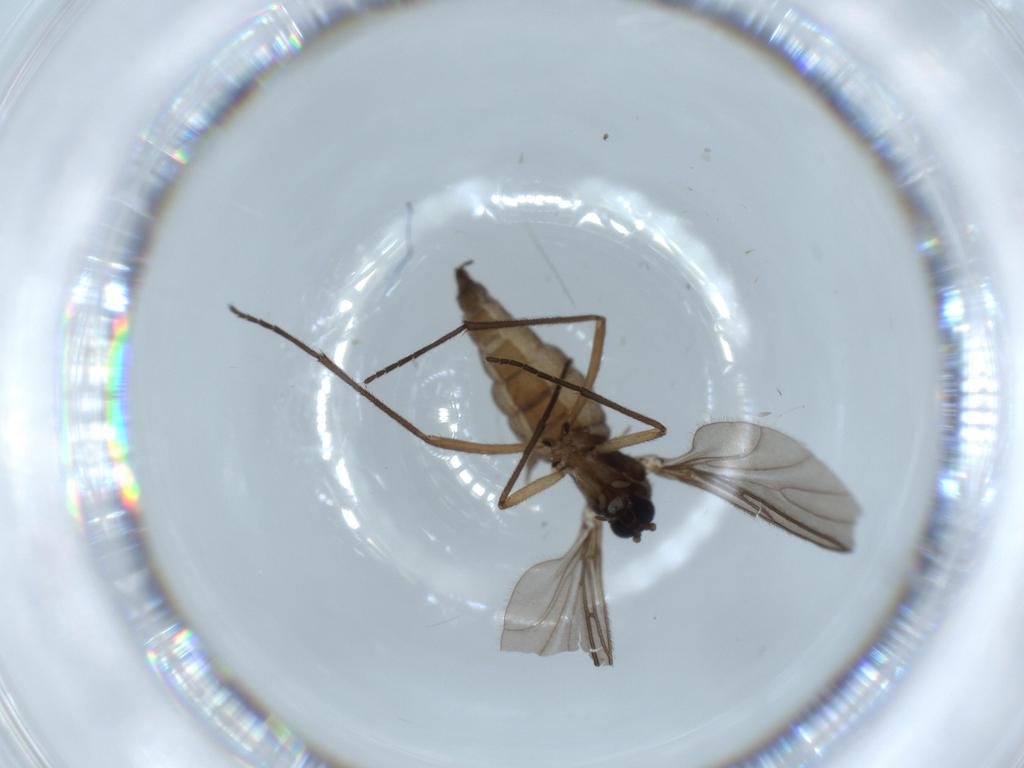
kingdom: Animalia
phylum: Arthropoda
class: Insecta
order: Diptera
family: Sciaridae
